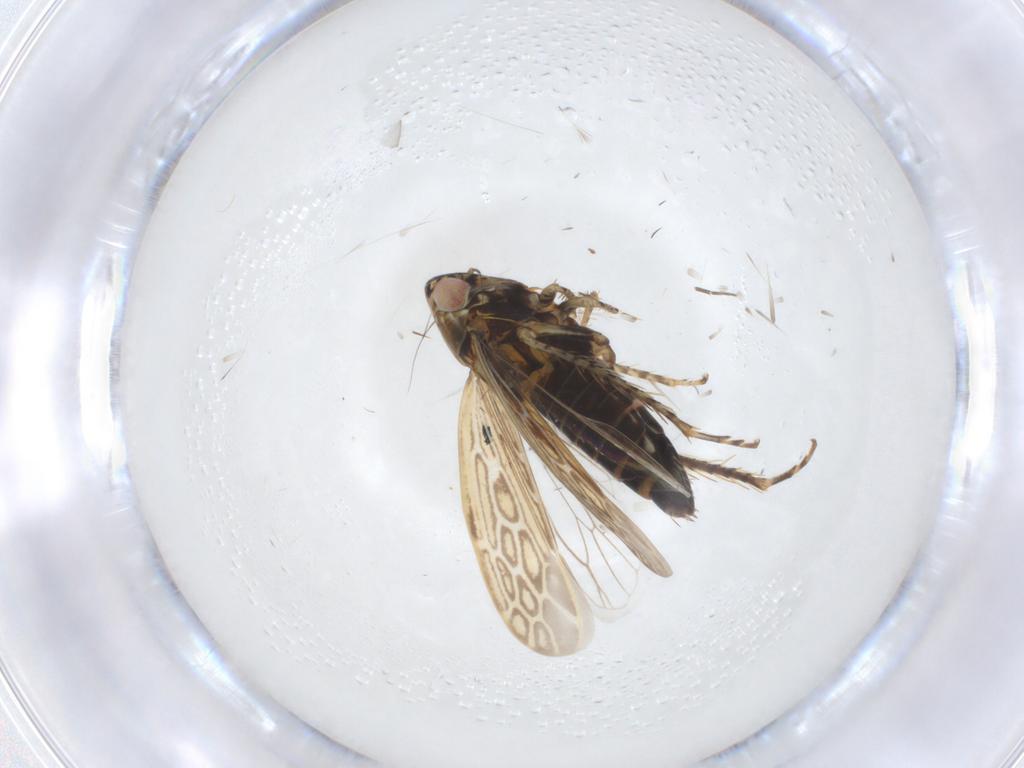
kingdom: Animalia
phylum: Arthropoda
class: Insecta
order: Hemiptera
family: Cicadellidae
